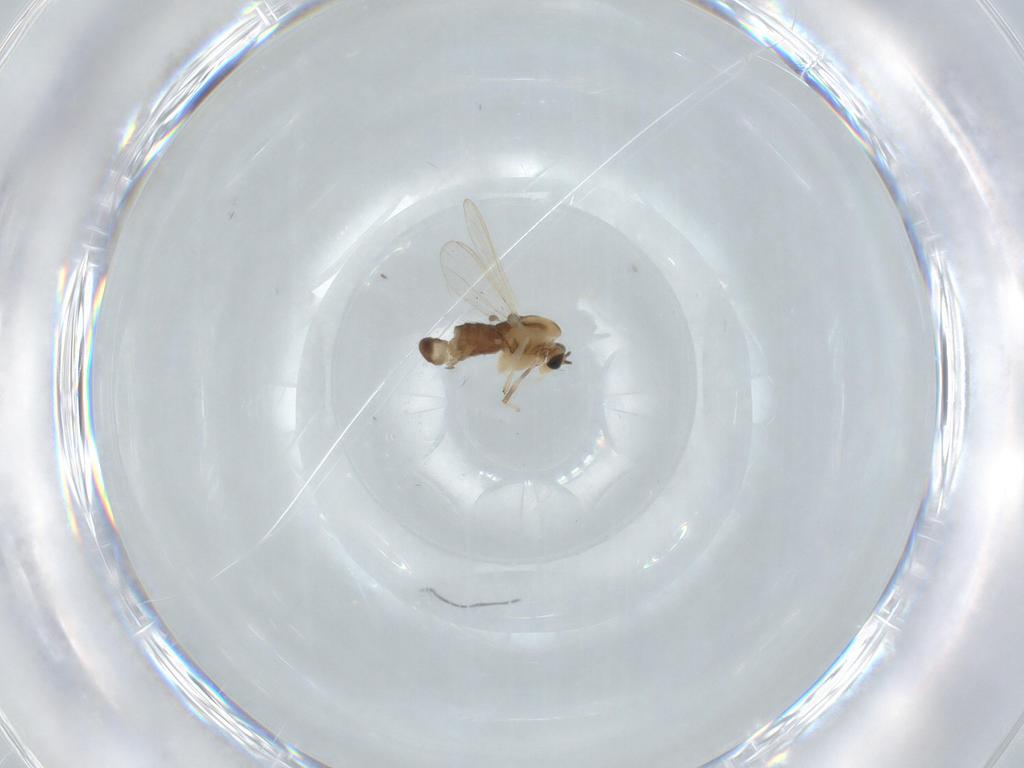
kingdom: Animalia
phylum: Arthropoda
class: Insecta
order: Diptera
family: Chironomidae
